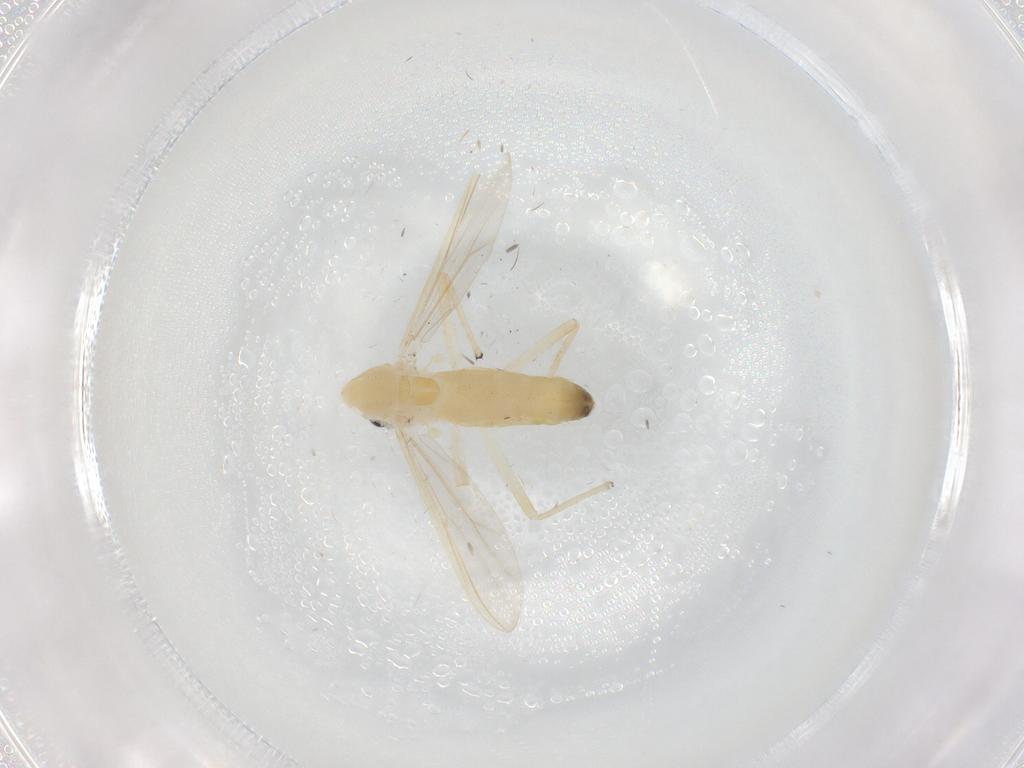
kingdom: Animalia
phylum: Arthropoda
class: Insecta
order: Diptera
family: Chironomidae
